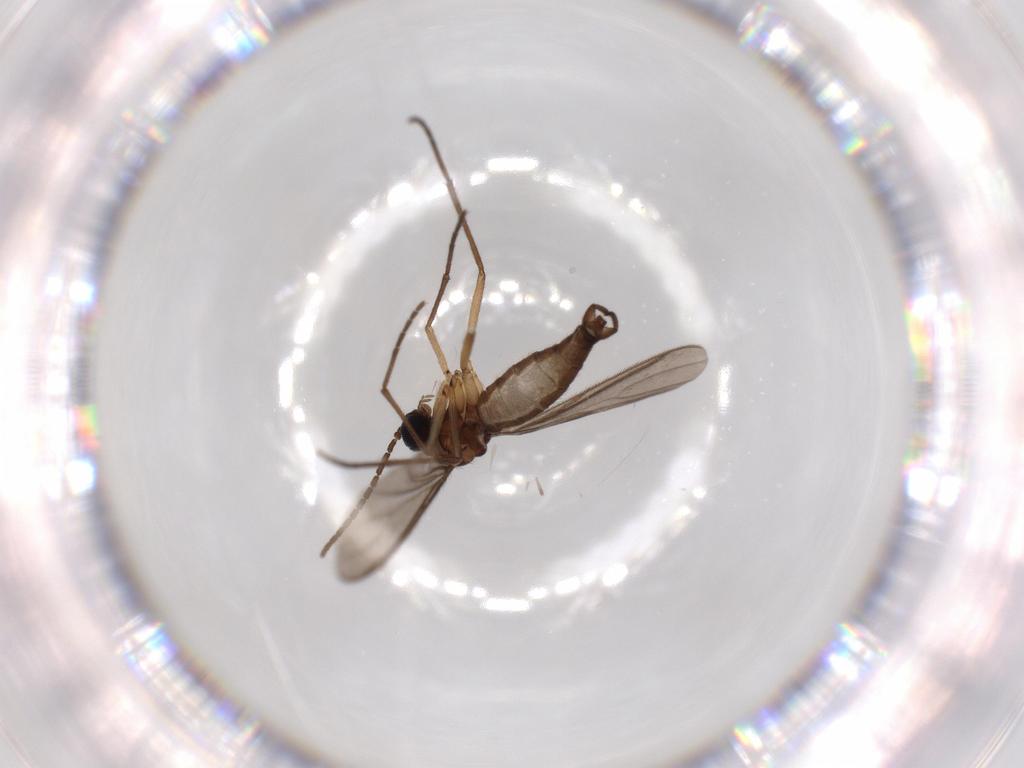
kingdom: Animalia
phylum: Arthropoda
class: Insecta
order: Diptera
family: Sciaridae
